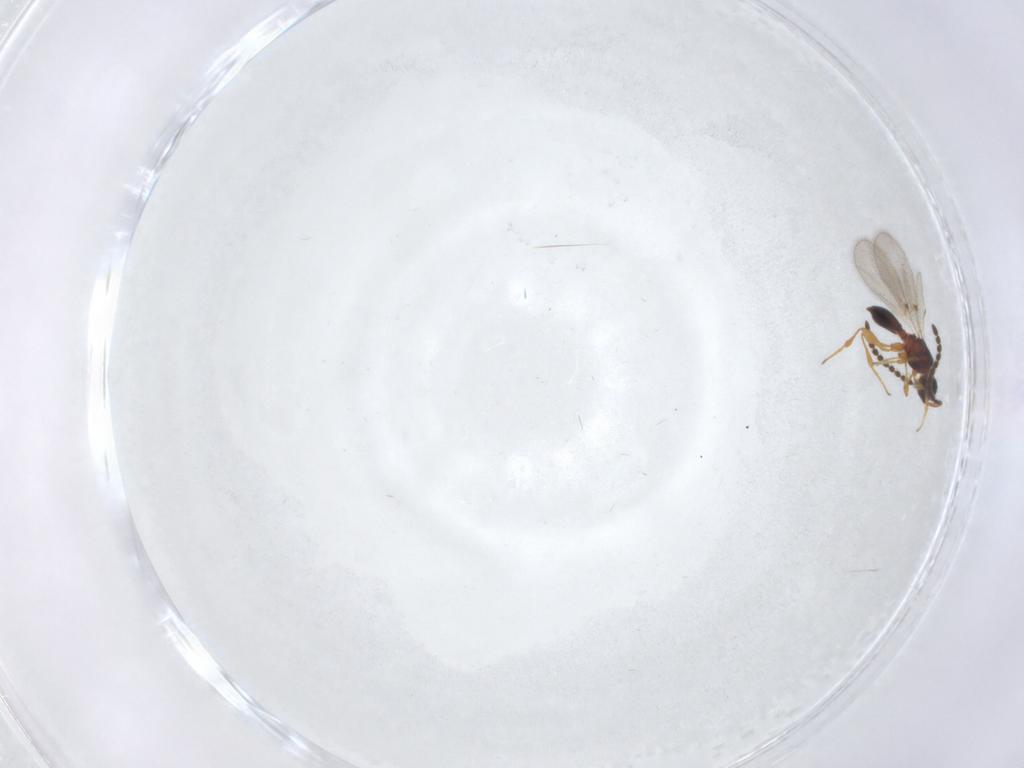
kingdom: Animalia
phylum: Arthropoda
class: Insecta
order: Hymenoptera
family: Diapriidae
